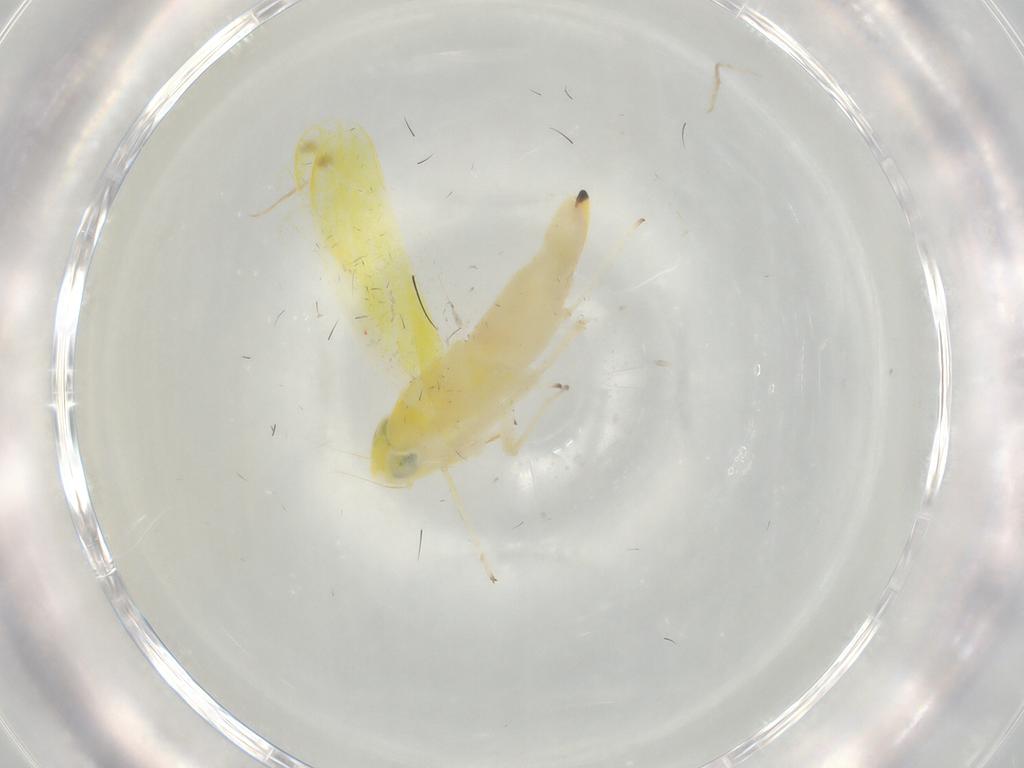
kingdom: Animalia
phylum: Arthropoda
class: Insecta
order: Hemiptera
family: Cicadellidae
